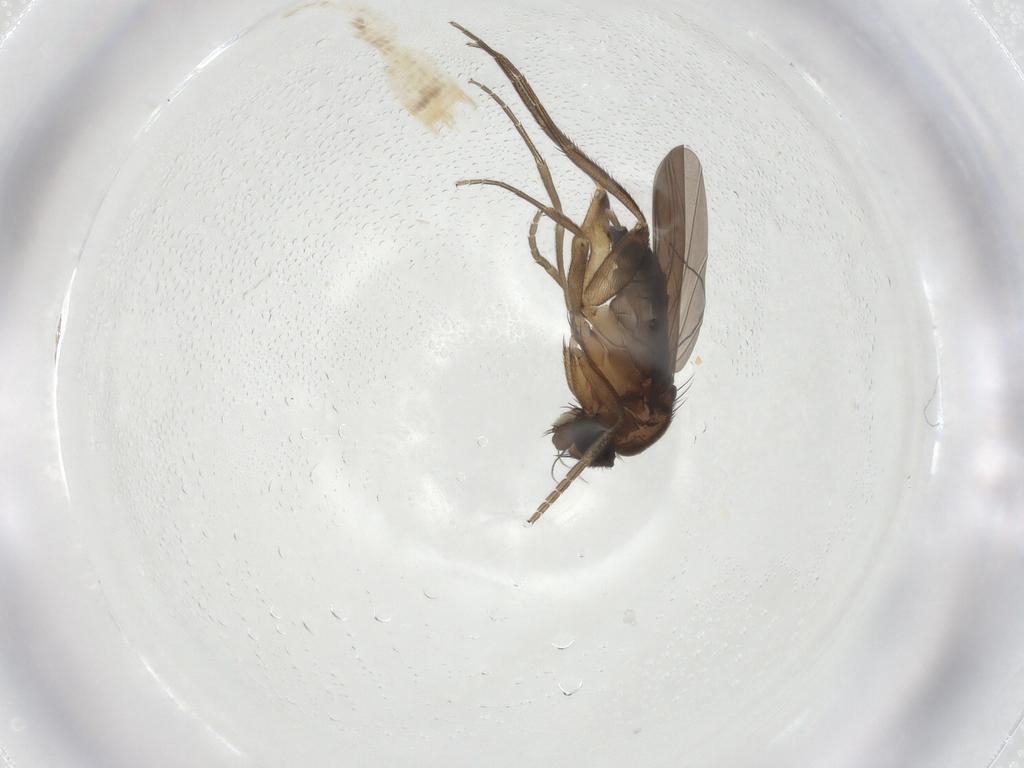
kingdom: Animalia
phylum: Arthropoda
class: Insecta
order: Diptera
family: Phoridae
